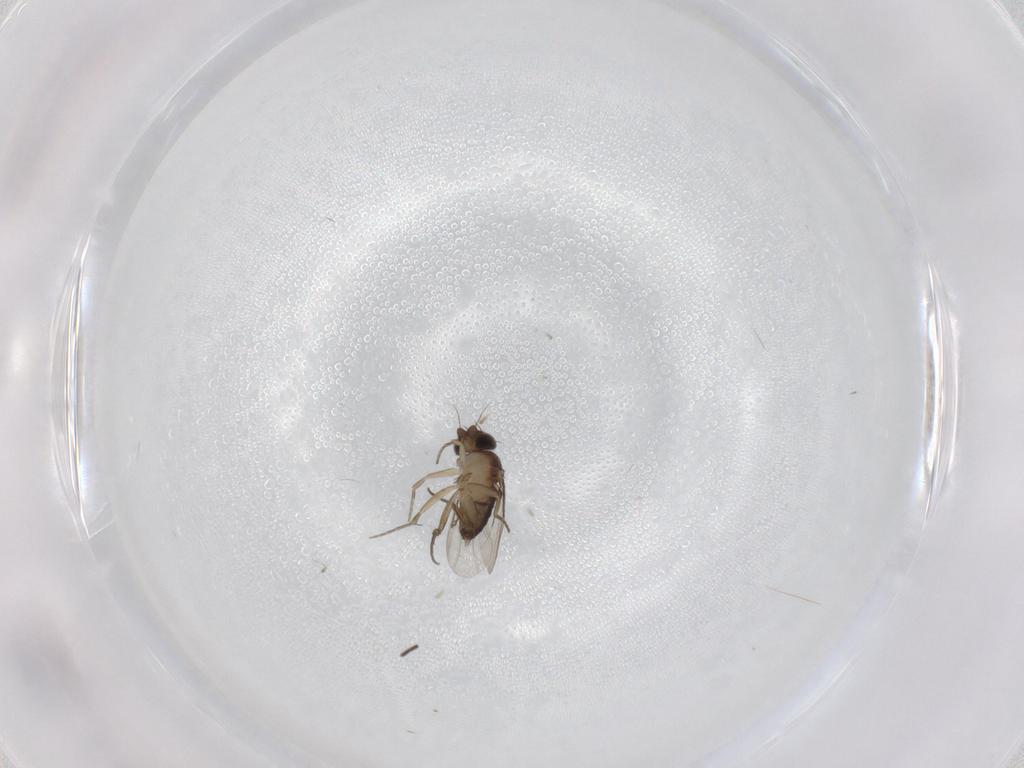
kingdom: Animalia
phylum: Arthropoda
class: Insecta
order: Diptera
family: Phoridae
